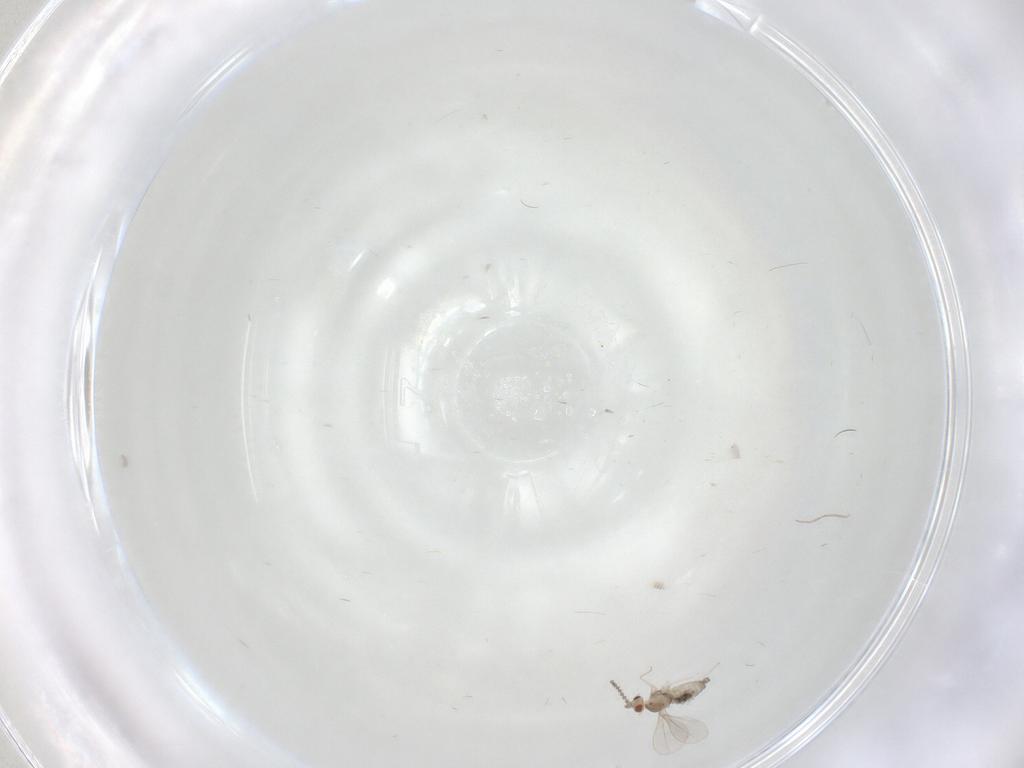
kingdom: Animalia
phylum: Arthropoda
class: Insecta
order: Diptera
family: Cecidomyiidae
